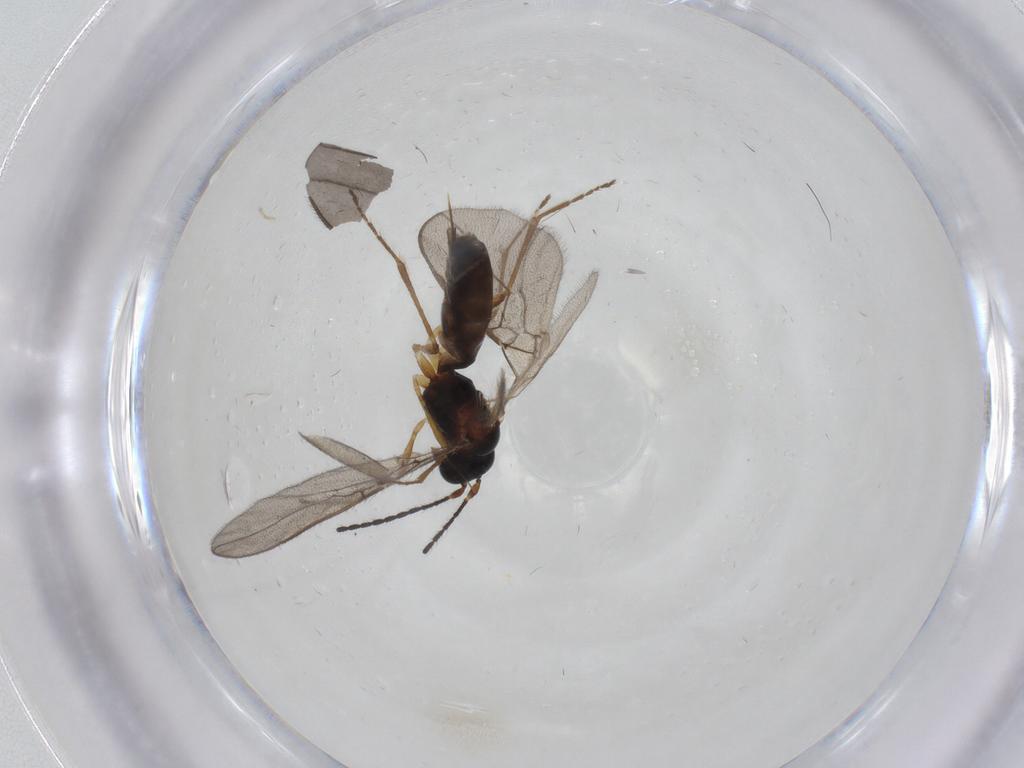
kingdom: Animalia
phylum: Arthropoda
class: Insecta
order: Hymenoptera
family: Braconidae
